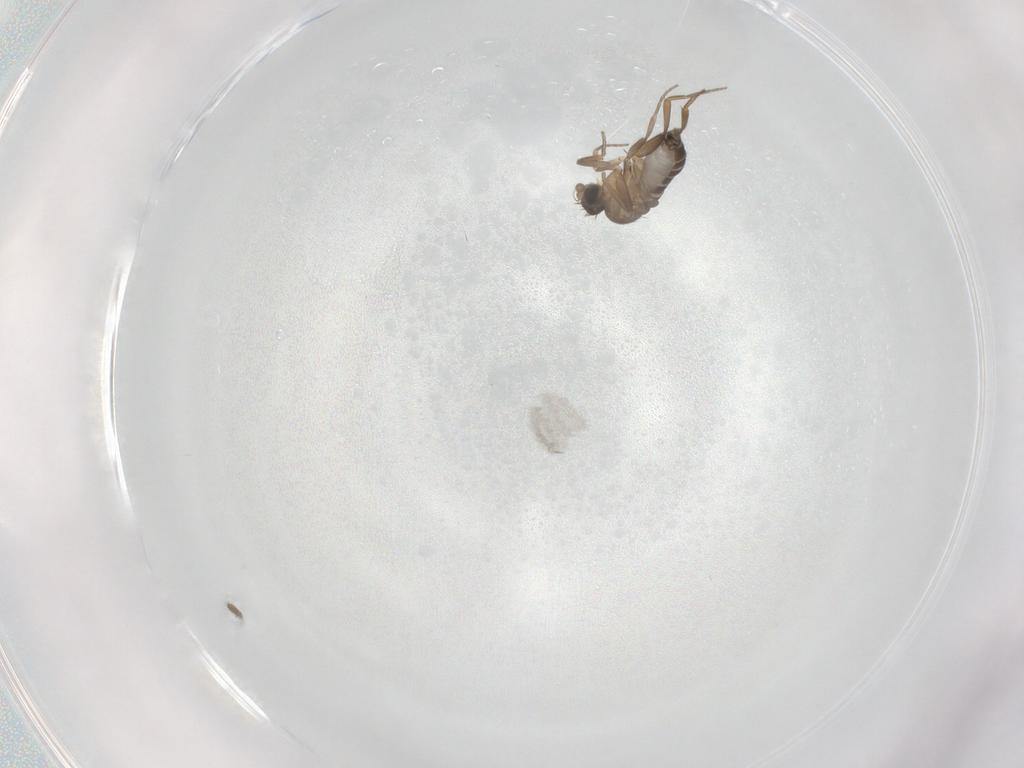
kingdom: Animalia
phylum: Arthropoda
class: Insecta
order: Diptera
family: Phoridae
